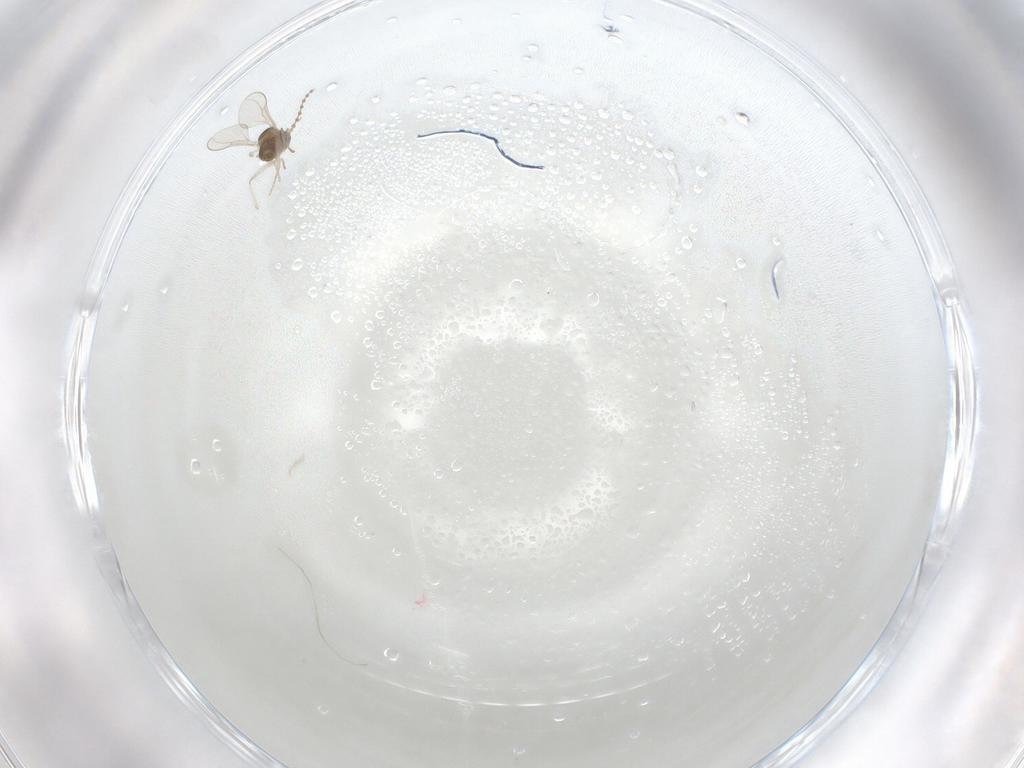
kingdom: Animalia
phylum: Arthropoda
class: Insecta
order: Diptera
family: Cecidomyiidae
